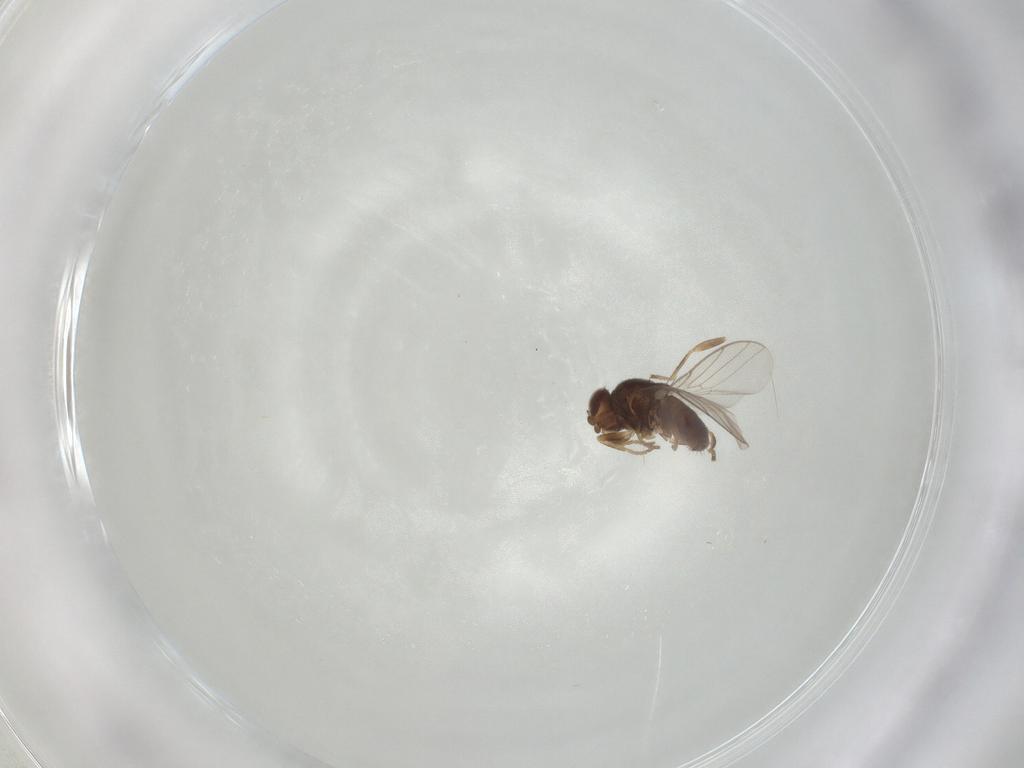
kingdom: Animalia
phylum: Arthropoda
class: Insecta
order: Diptera
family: Chloropidae
